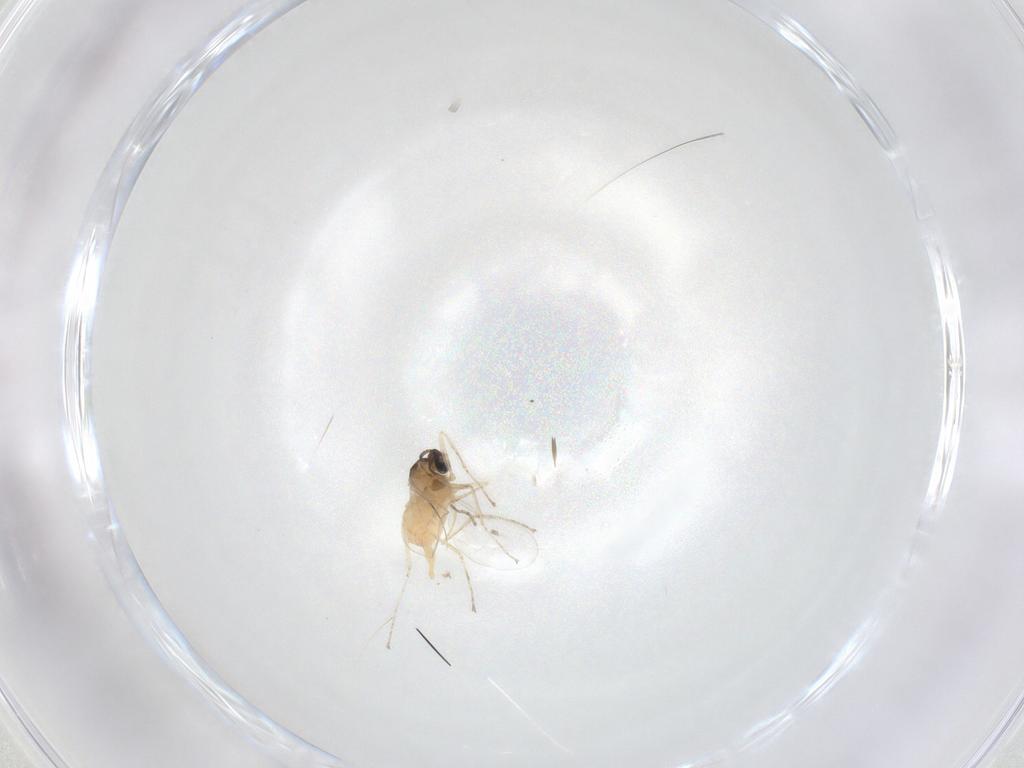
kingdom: Animalia
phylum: Arthropoda
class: Insecta
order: Diptera
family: Cecidomyiidae
